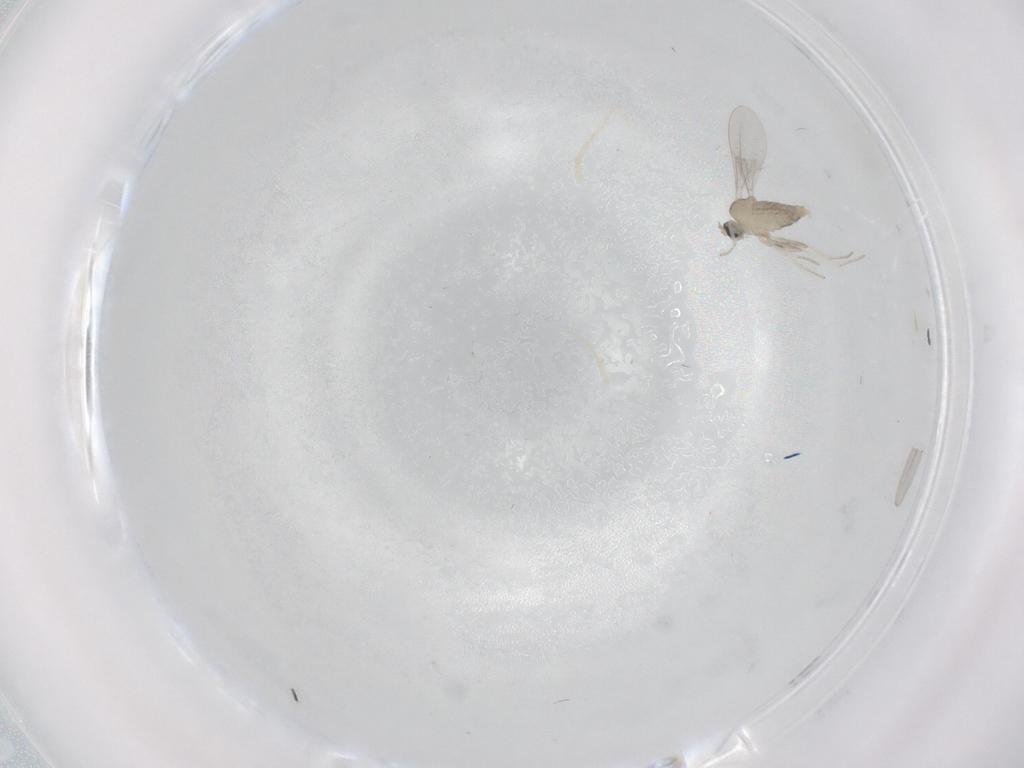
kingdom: Animalia
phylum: Arthropoda
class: Insecta
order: Diptera
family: Cecidomyiidae
